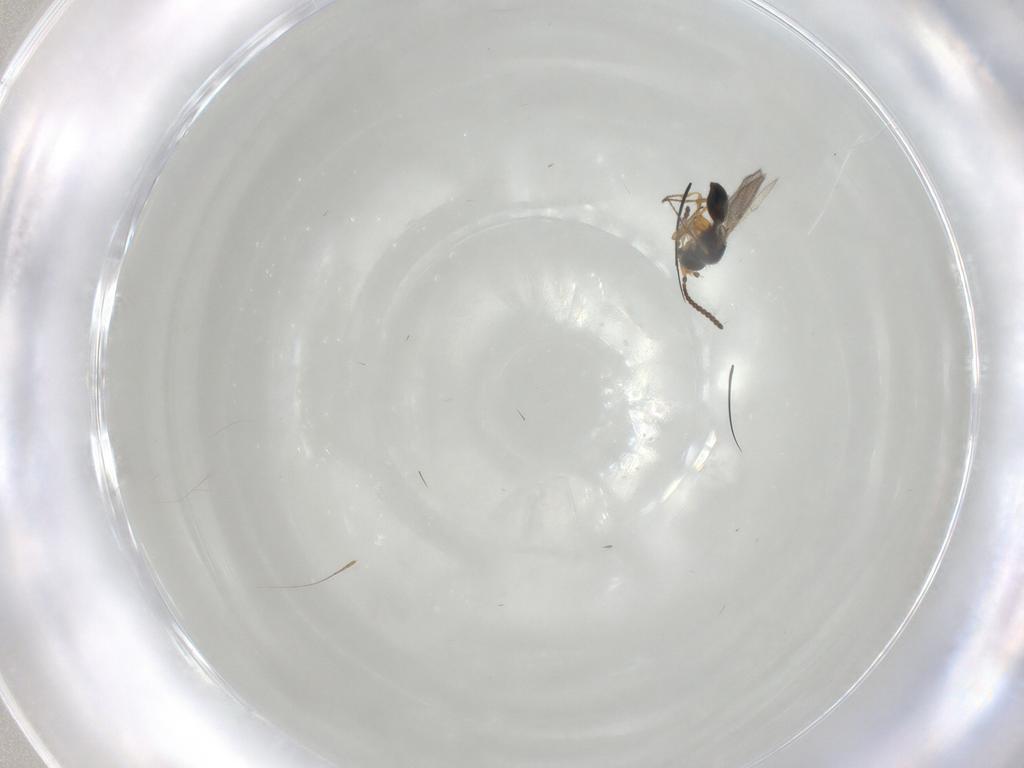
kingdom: Animalia
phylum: Arthropoda
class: Insecta
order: Hymenoptera
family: Diapriidae
